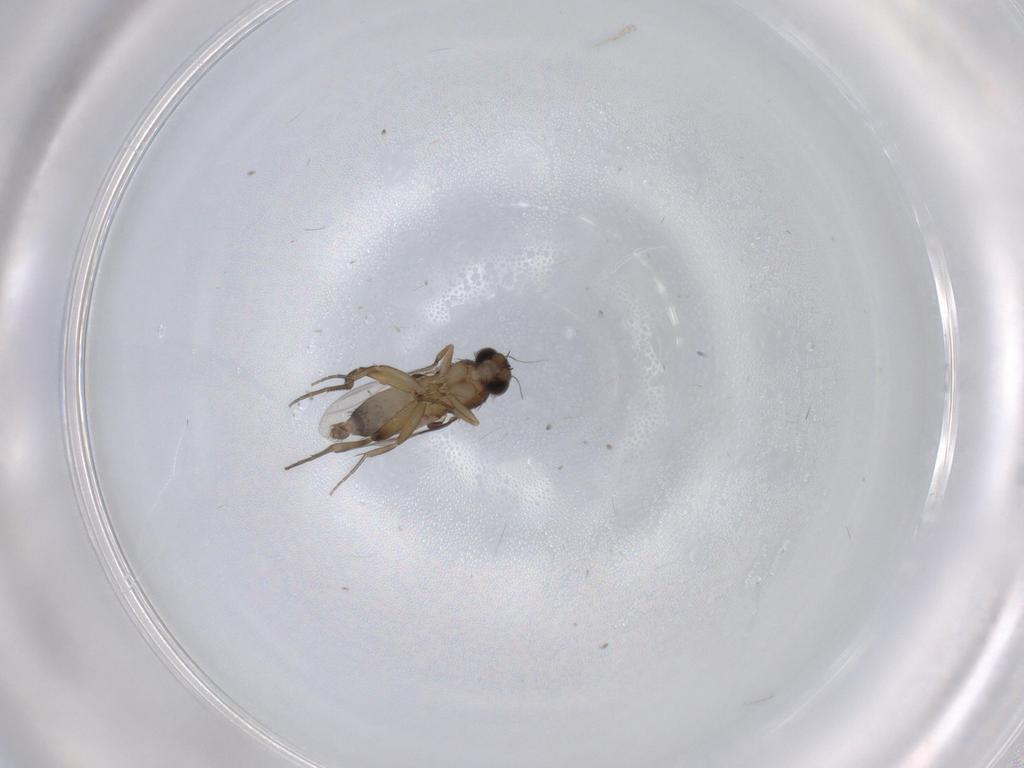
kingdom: Animalia
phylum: Arthropoda
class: Insecta
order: Diptera
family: Phoridae
